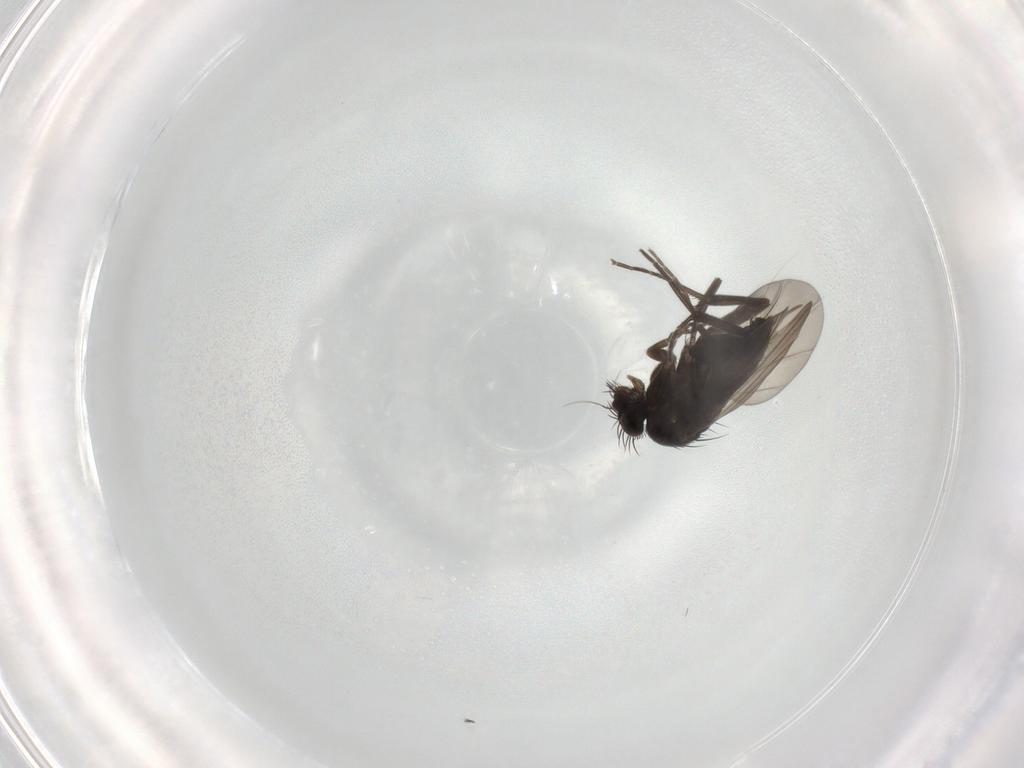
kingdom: Animalia
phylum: Arthropoda
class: Insecta
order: Diptera
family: Phoridae
